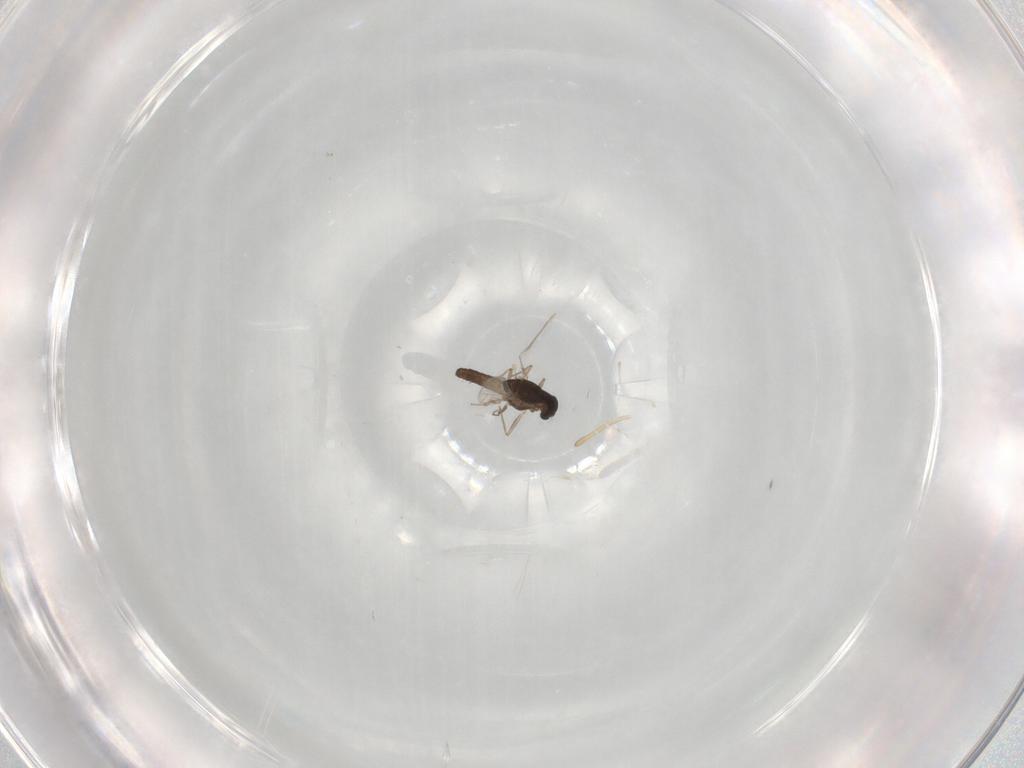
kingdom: Animalia
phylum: Arthropoda
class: Insecta
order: Diptera
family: Chironomidae
